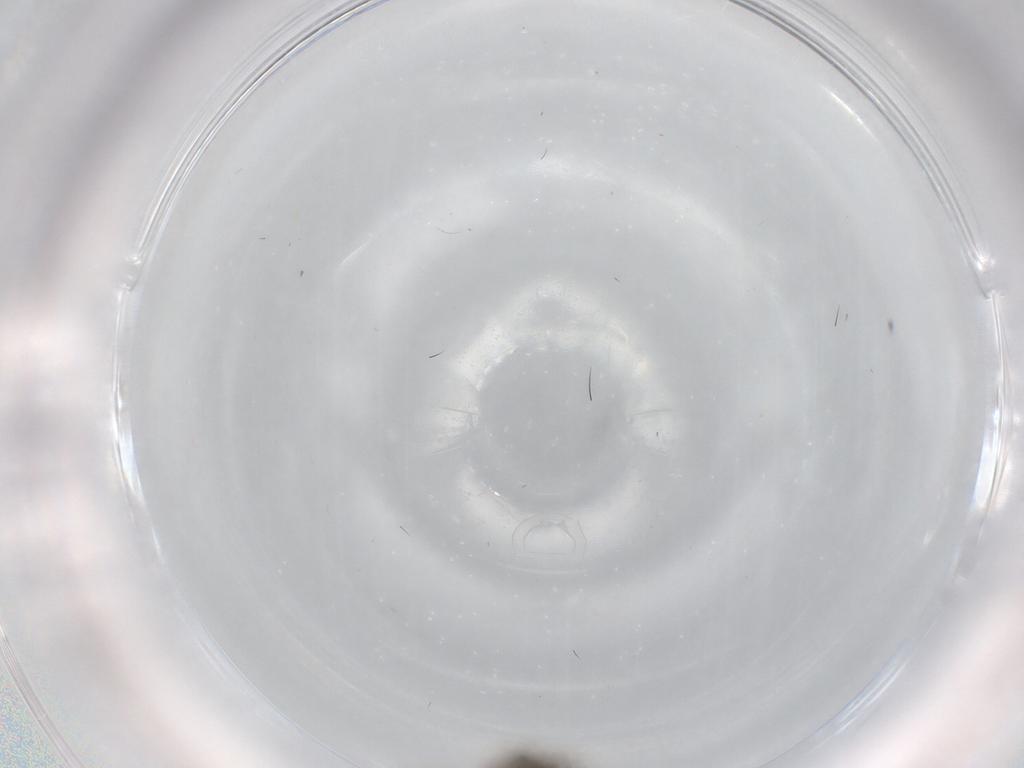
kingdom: Animalia
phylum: Arthropoda
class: Insecta
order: Diptera
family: Cecidomyiidae
